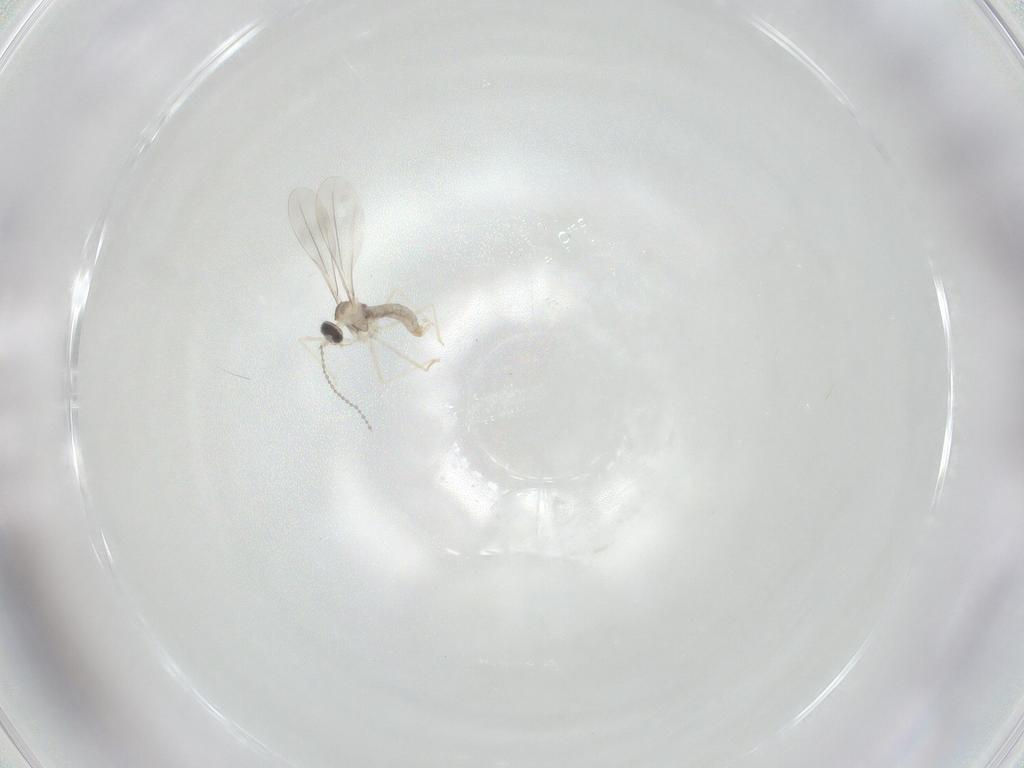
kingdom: Animalia
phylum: Arthropoda
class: Insecta
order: Diptera
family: Cecidomyiidae
